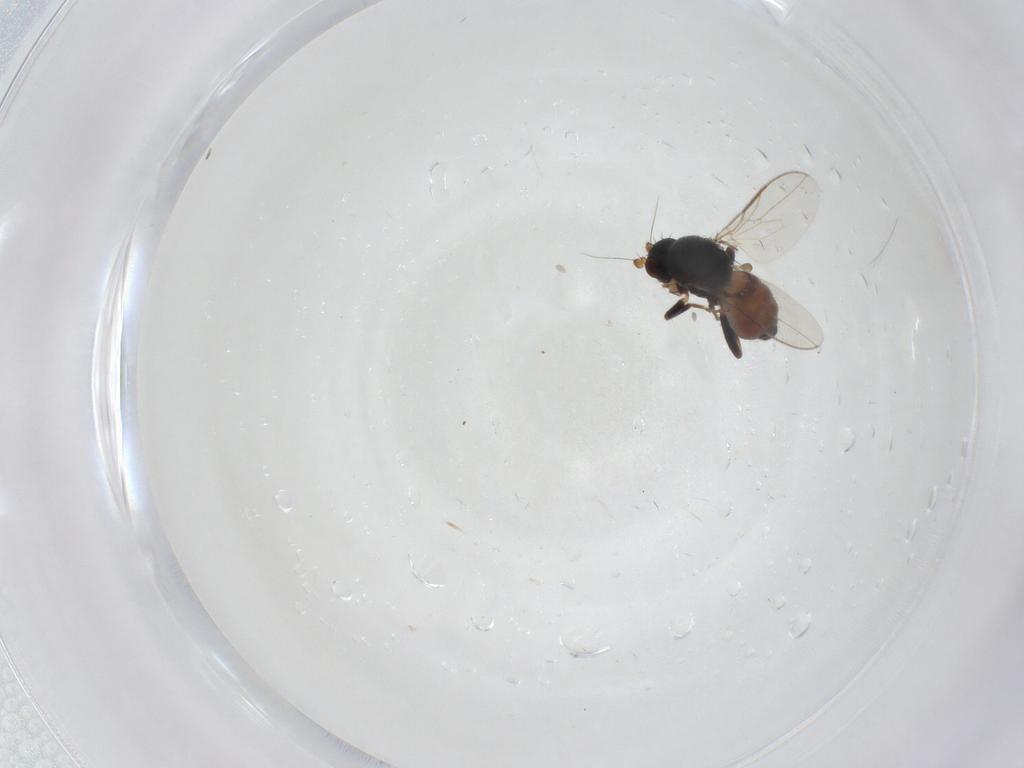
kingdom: Animalia
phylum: Arthropoda
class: Insecta
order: Diptera
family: Sphaeroceridae
